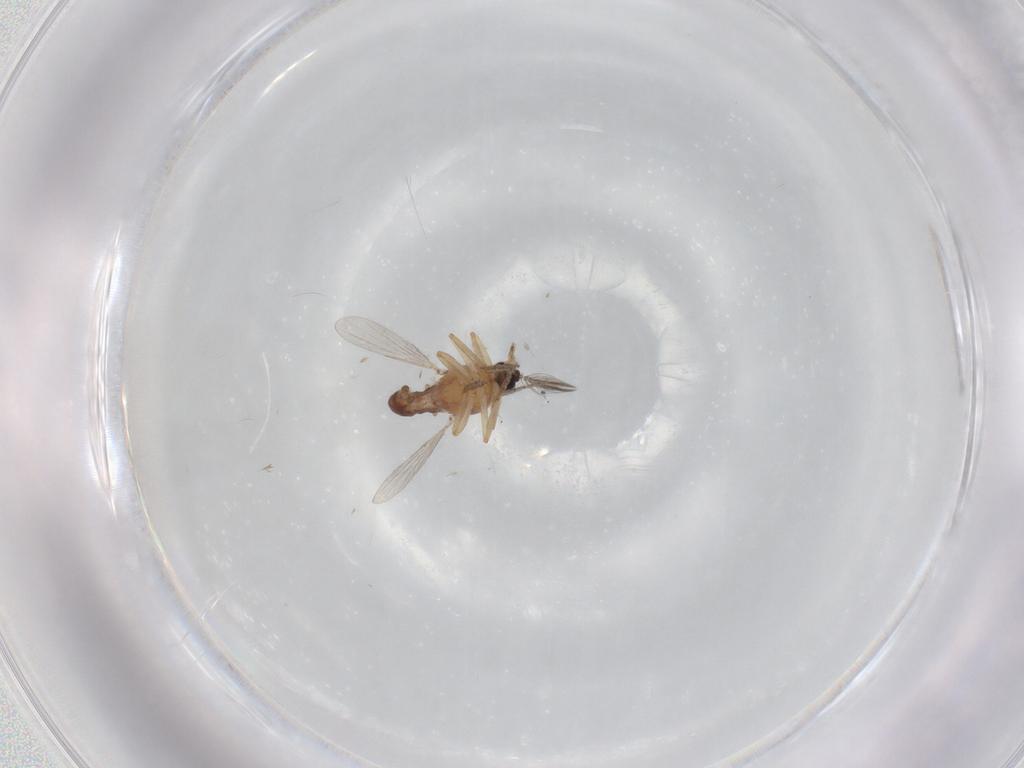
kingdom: Animalia
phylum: Arthropoda
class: Insecta
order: Diptera
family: Ceratopogonidae
